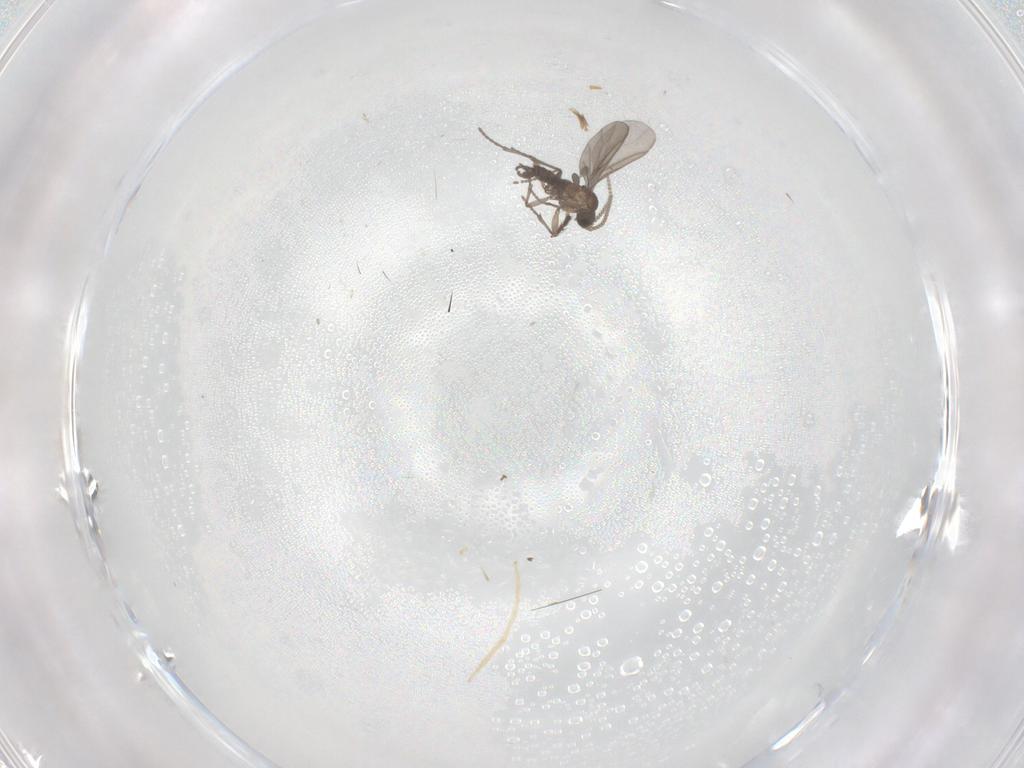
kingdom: Animalia
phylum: Arthropoda
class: Insecta
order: Diptera
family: Dolichopodidae
